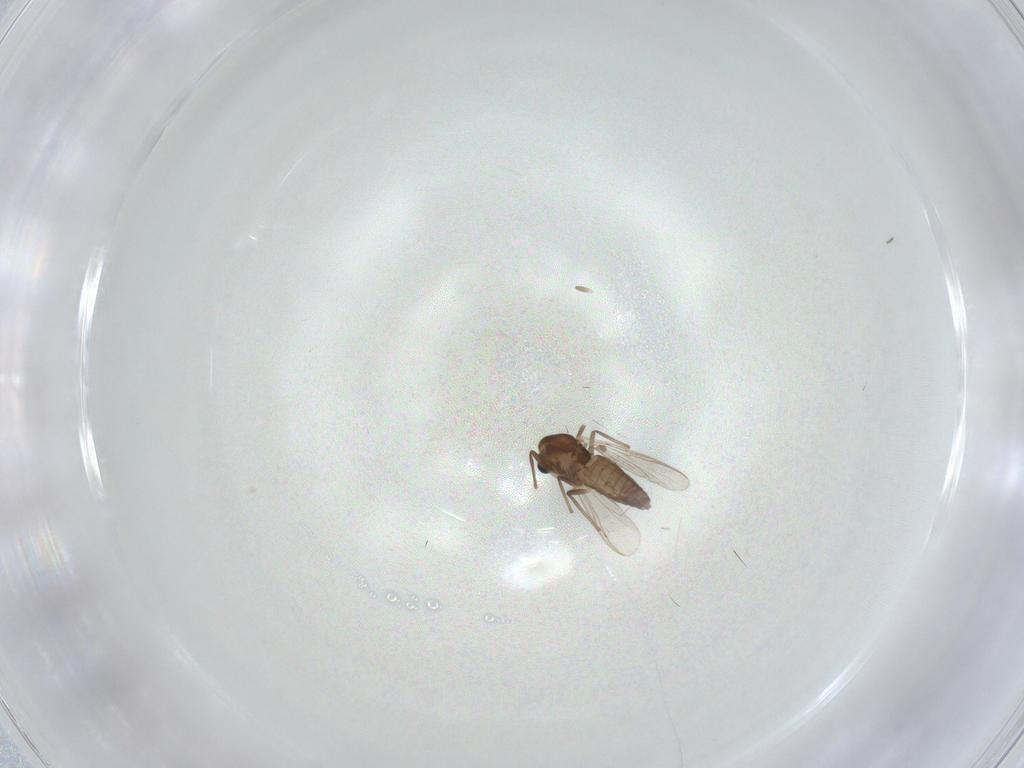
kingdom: Animalia
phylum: Arthropoda
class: Insecta
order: Diptera
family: Chironomidae
